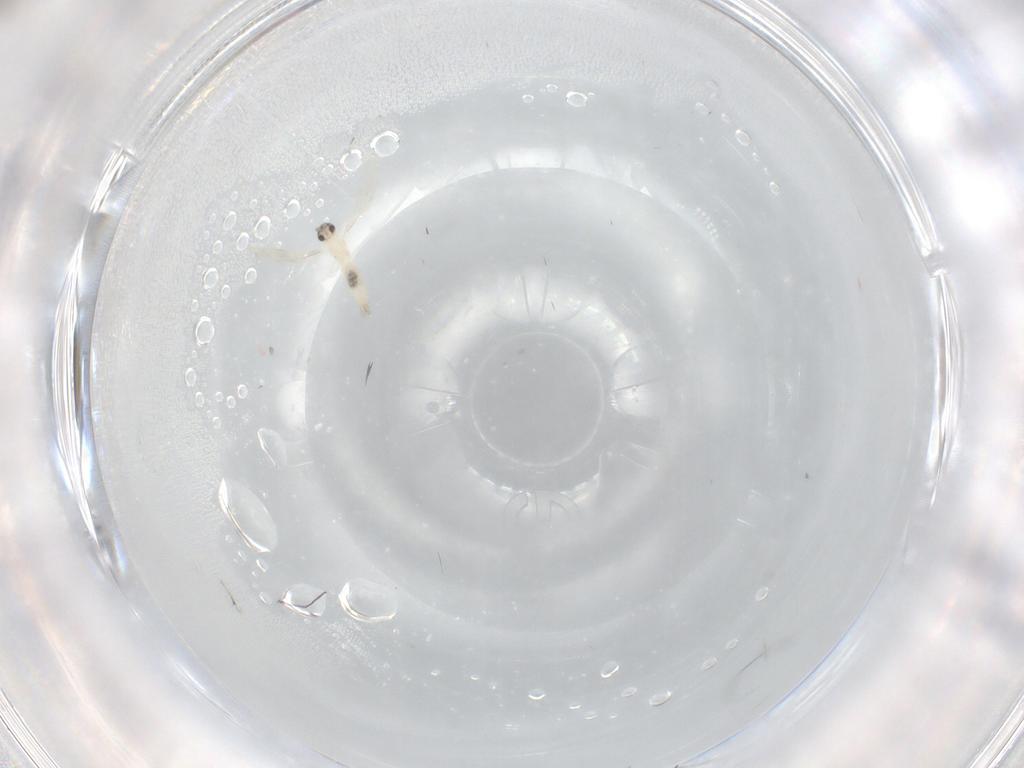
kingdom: Animalia
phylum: Arthropoda
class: Insecta
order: Diptera
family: Cecidomyiidae
